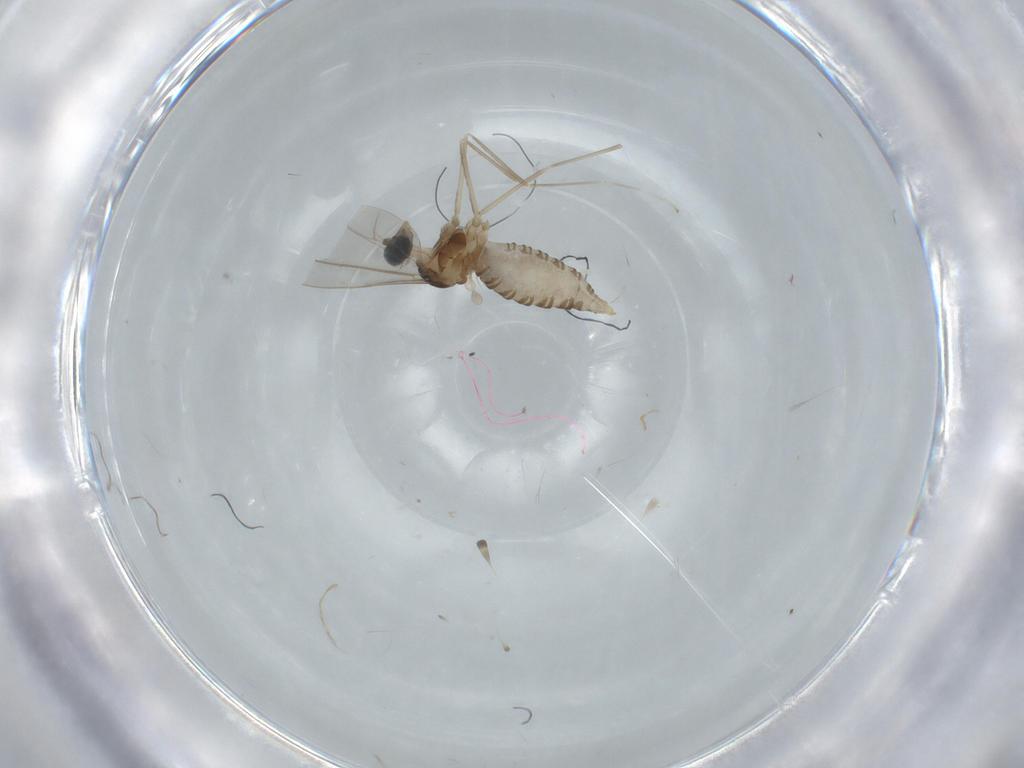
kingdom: Animalia
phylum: Arthropoda
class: Insecta
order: Diptera
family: Cecidomyiidae
